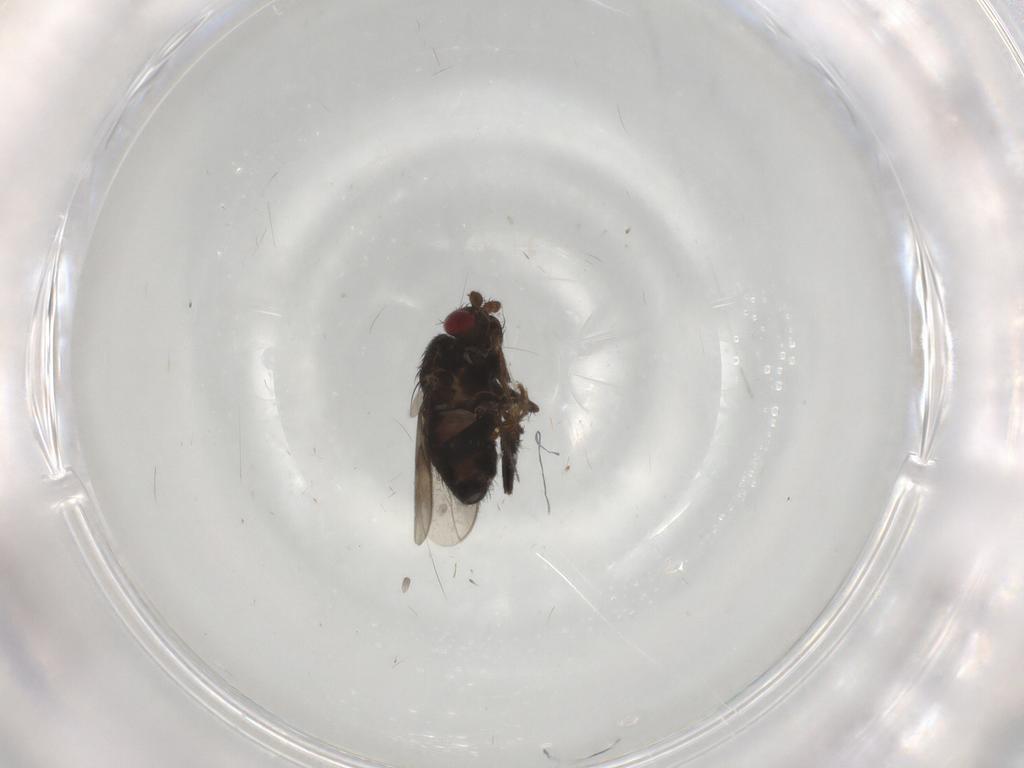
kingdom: Animalia
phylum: Arthropoda
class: Insecta
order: Diptera
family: Sphaeroceridae
